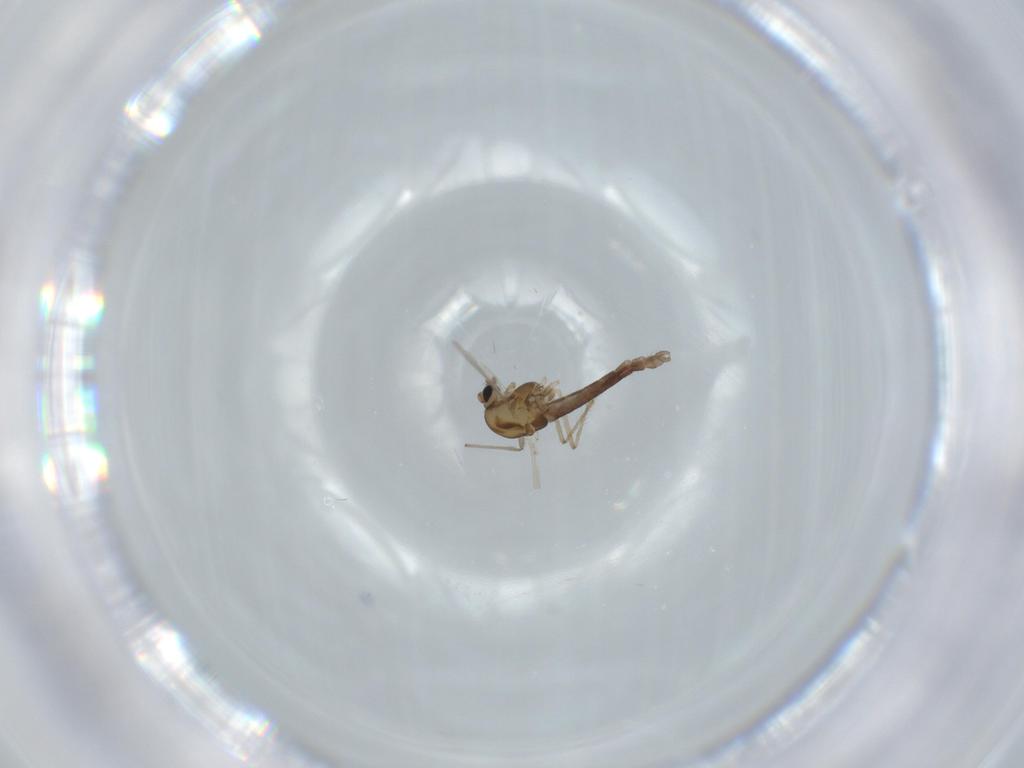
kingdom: Animalia
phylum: Arthropoda
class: Insecta
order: Diptera
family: Chironomidae
